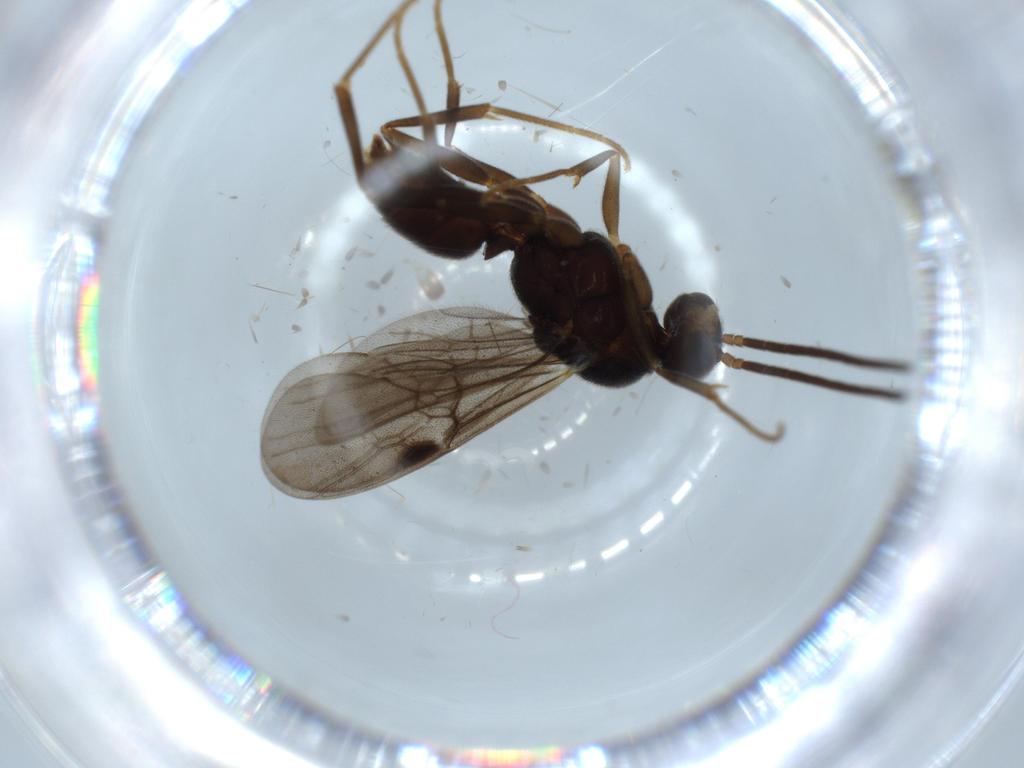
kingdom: Animalia
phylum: Arthropoda
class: Insecta
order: Hymenoptera
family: Formicidae
